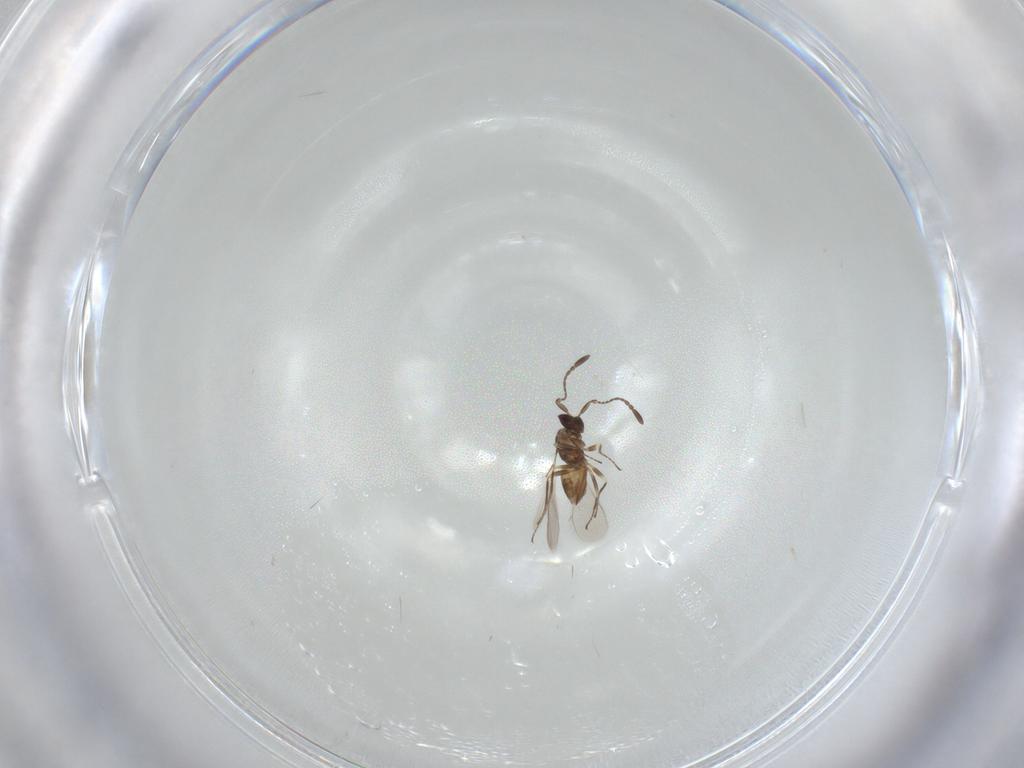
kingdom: Animalia
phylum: Arthropoda
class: Insecta
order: Hymenoptera
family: Mymaridae
